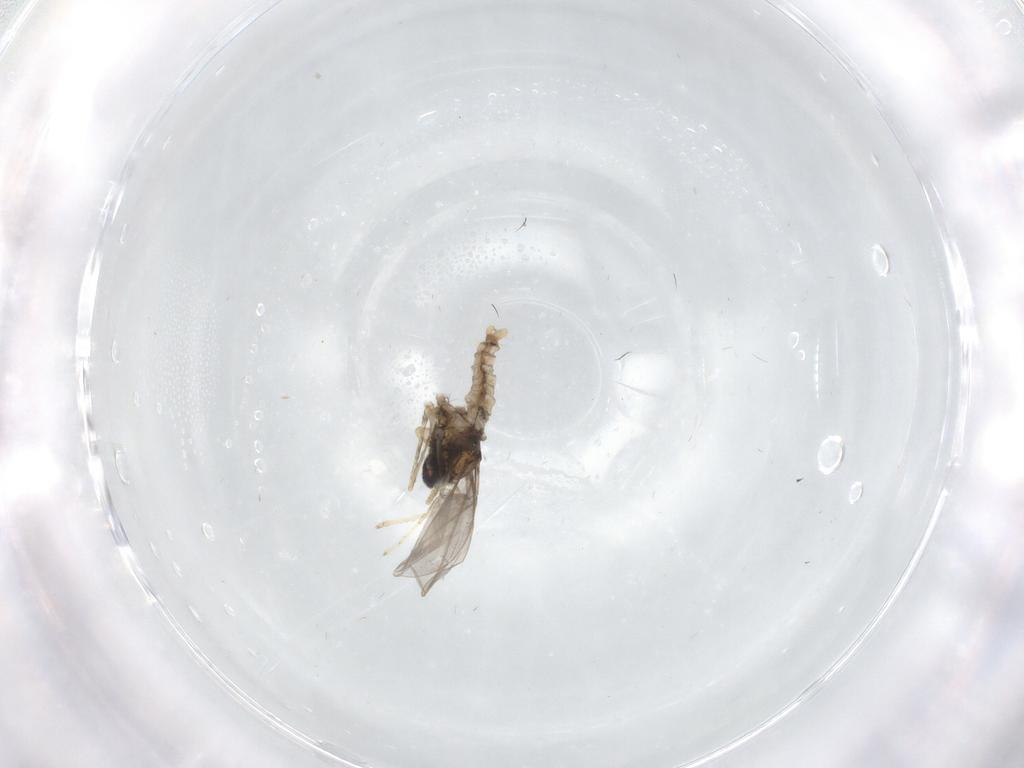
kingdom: Animalia
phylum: Arthropoda
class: Insecta
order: Diptera
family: Cecidomyiidae
